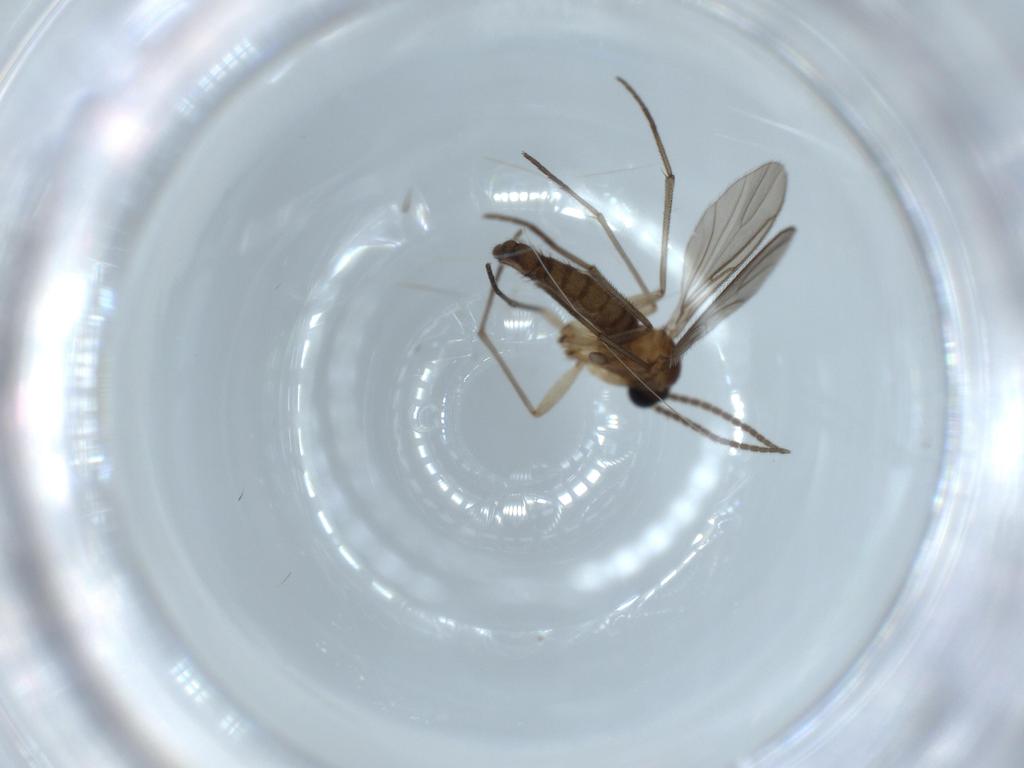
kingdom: Animalia
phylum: Arthropoda
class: Insecta
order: Diptera
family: Sciaridae
